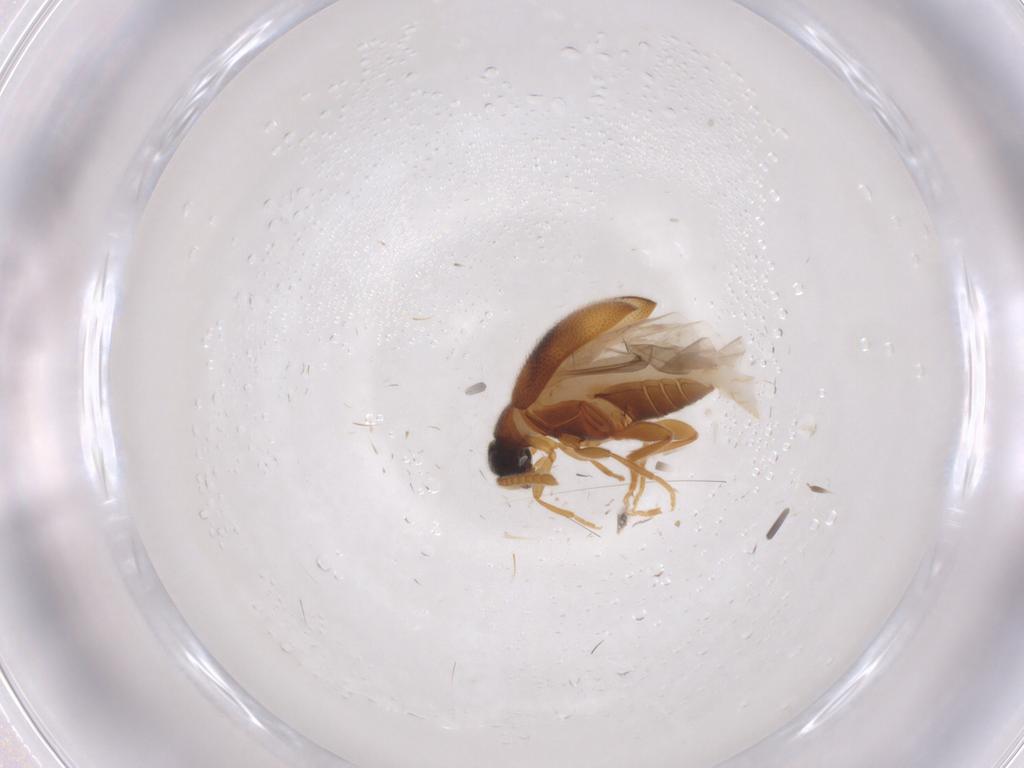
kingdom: Animalia
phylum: Arthropoda
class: Insecta
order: Coleoptera
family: Aderidae
